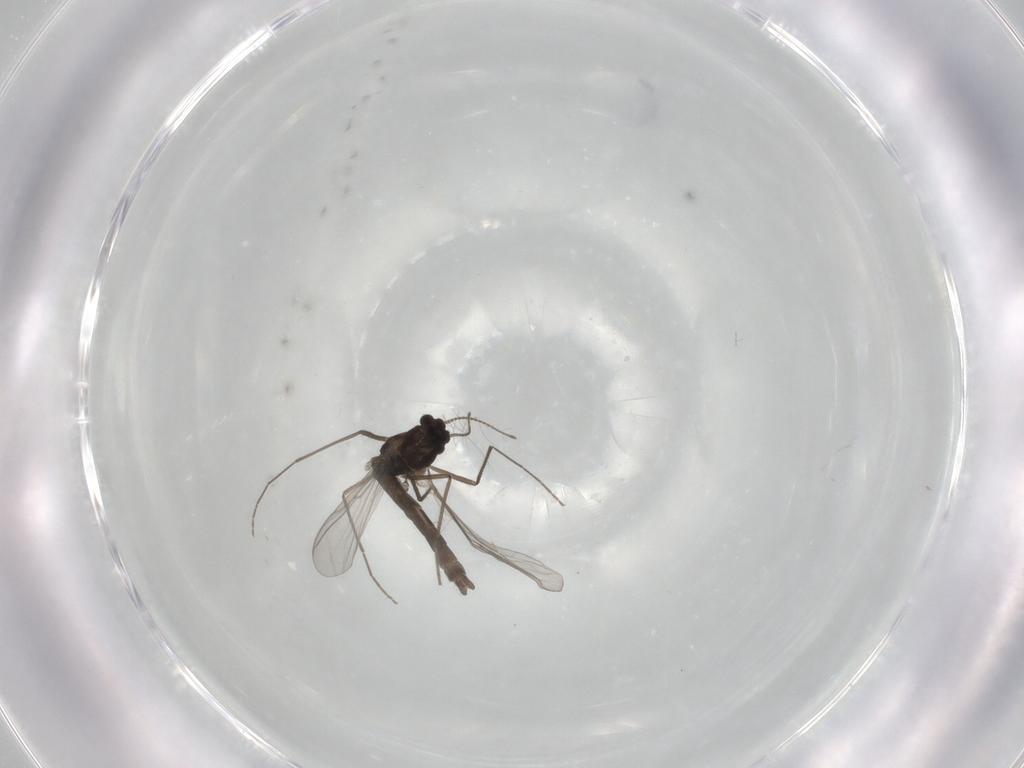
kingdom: Animalia
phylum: Arthropoda
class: Insecta
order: Diptera
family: Chironomidae
